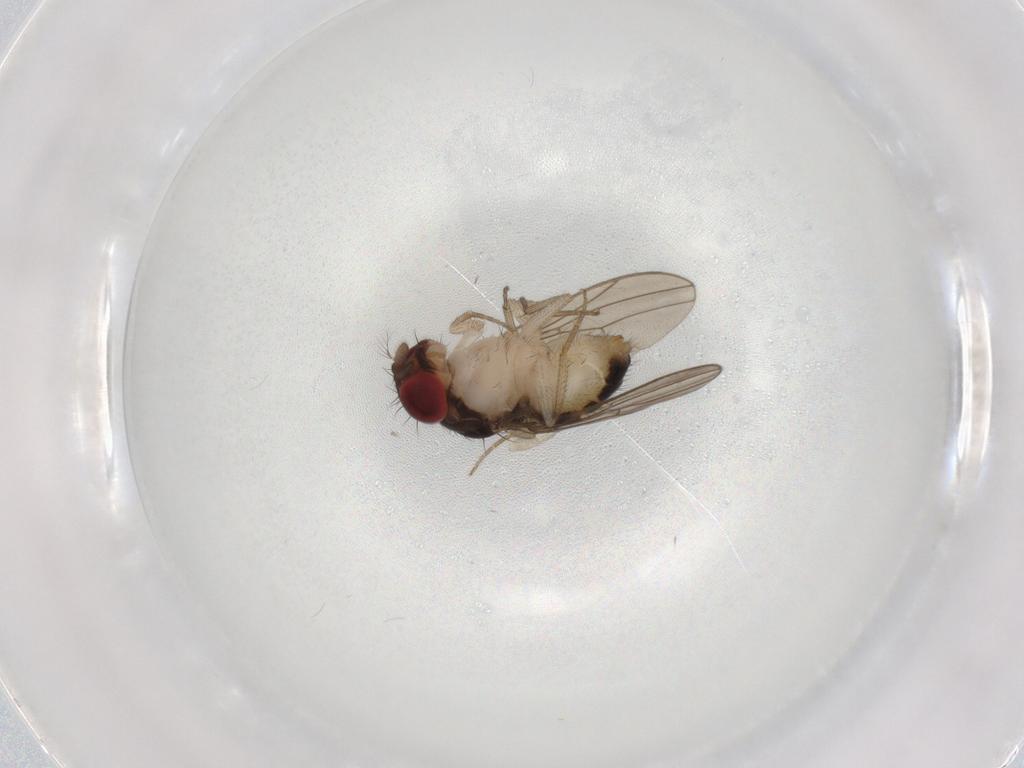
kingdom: Animalia
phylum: Arthropoda
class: Insecta
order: Diptera
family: Drosophilidae
